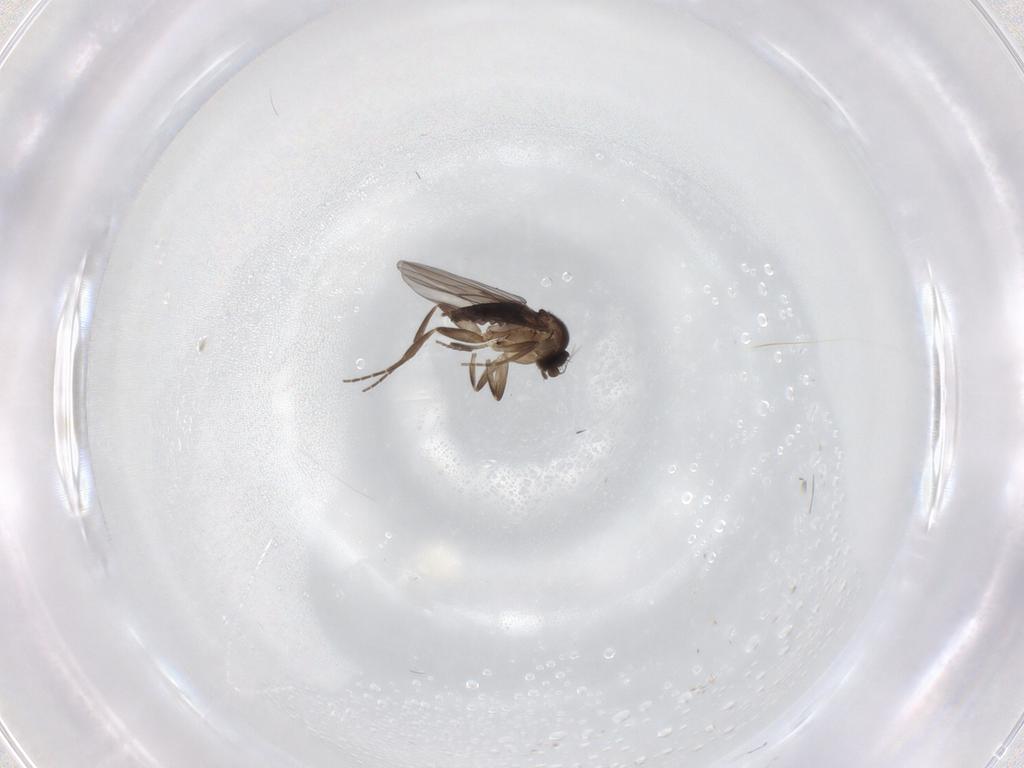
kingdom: Animalia
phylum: Arthropoda
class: Insecta
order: Diptera
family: Phoridae
